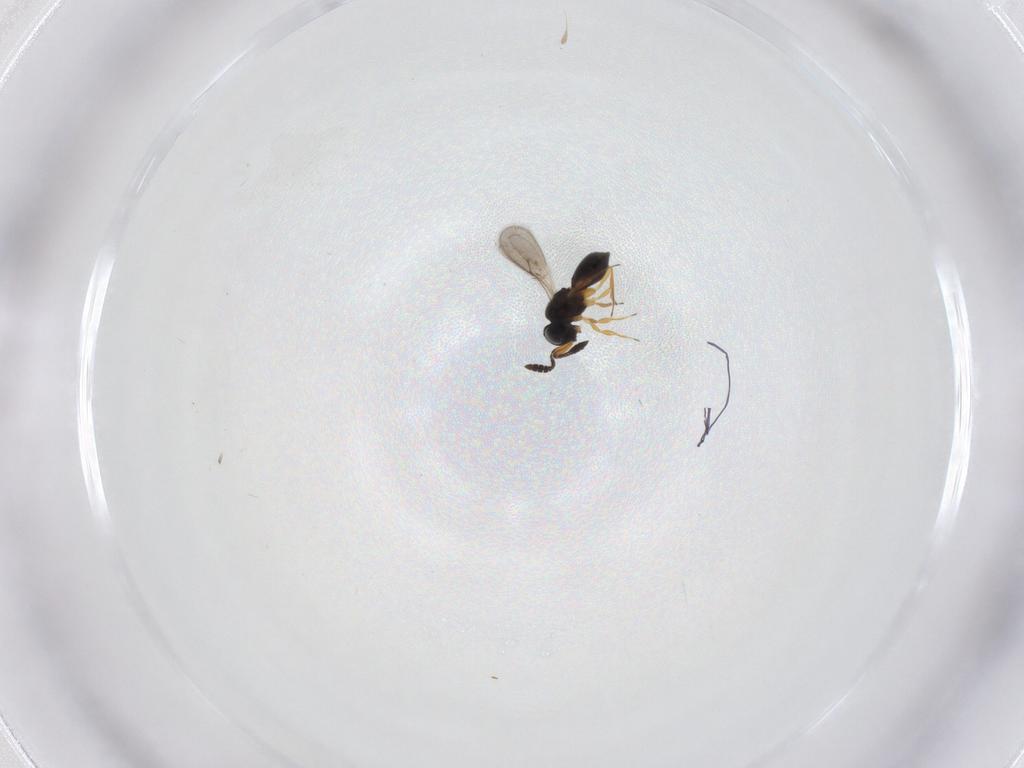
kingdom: Animalia
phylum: Arthropoda
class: Insecta
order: Hymenoptera
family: Scelionidae
